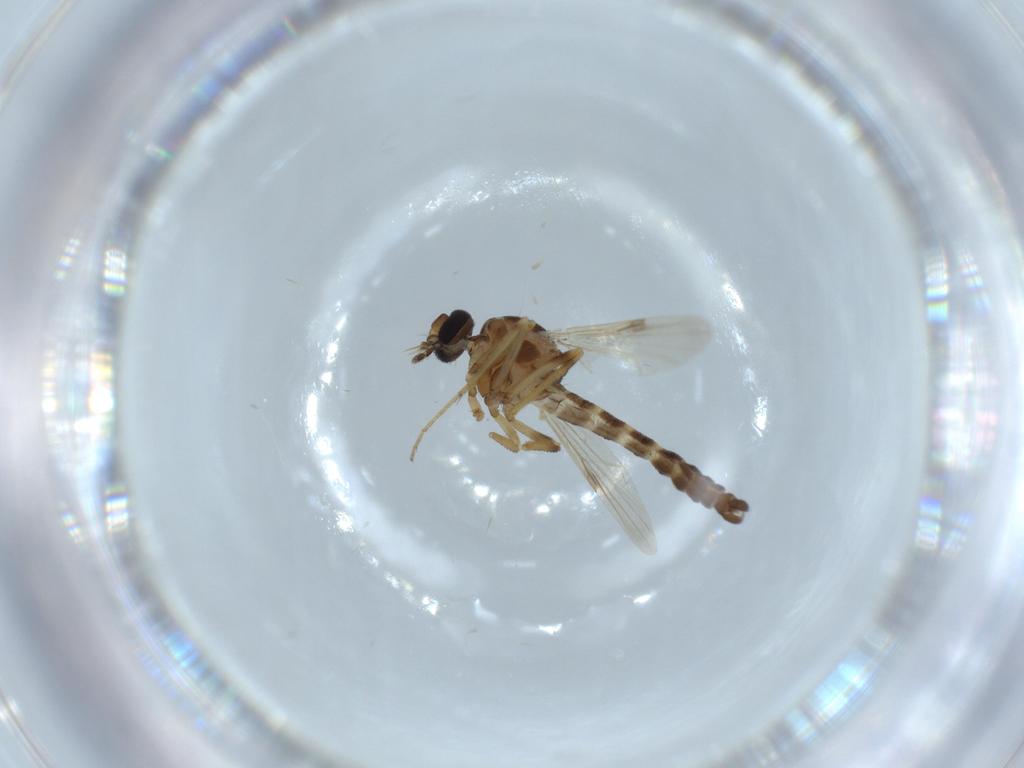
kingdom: Animalia
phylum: Arthropoda
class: Insecta
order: Diptera
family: Ceratopogonidae
